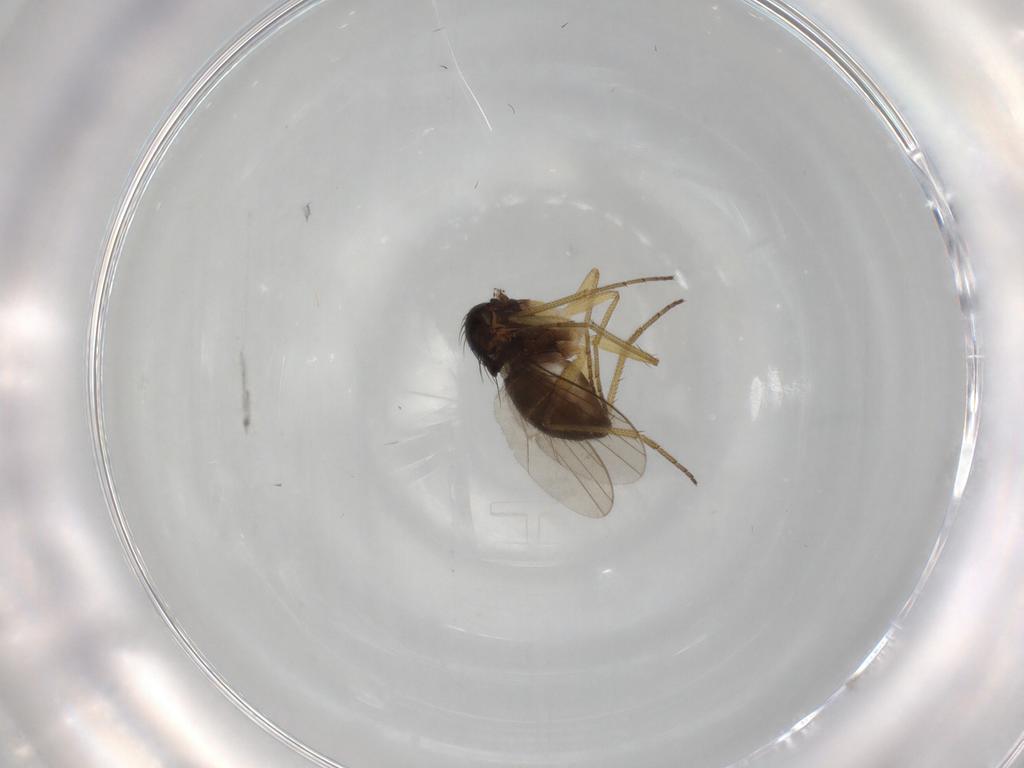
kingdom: Animalia
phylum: Arthropoda
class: Insecta
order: Diptera
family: Dolichopodidae
